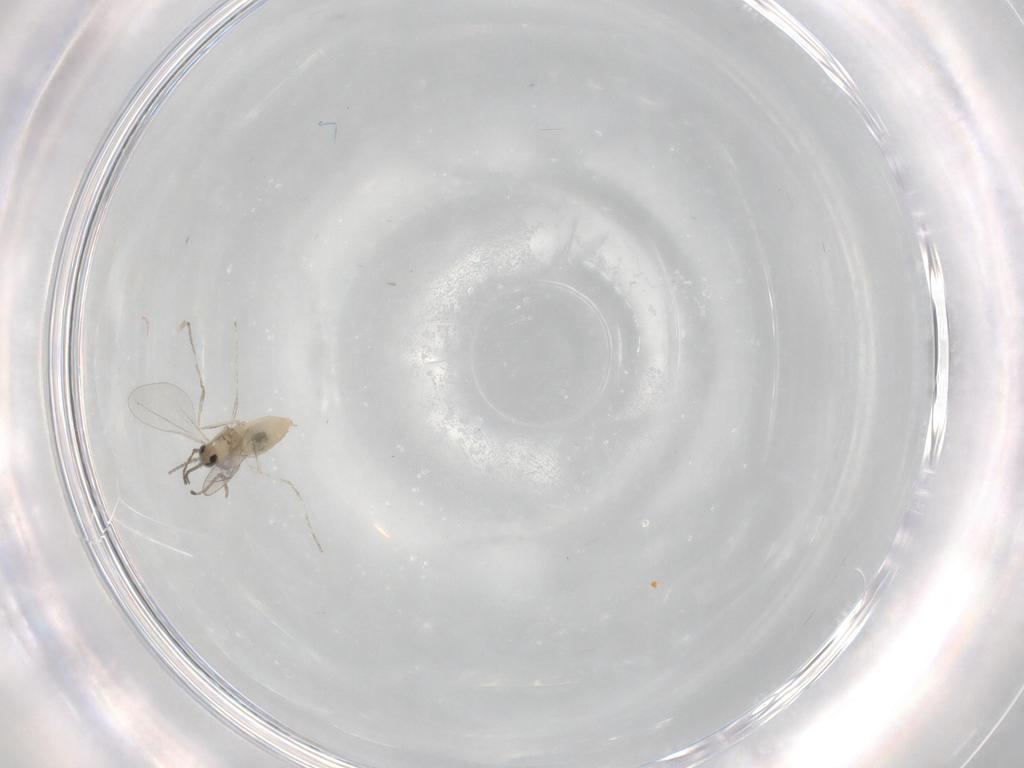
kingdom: Animalia
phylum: Arthropoda
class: Insecta
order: Diptera
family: Cecidomyiidae
